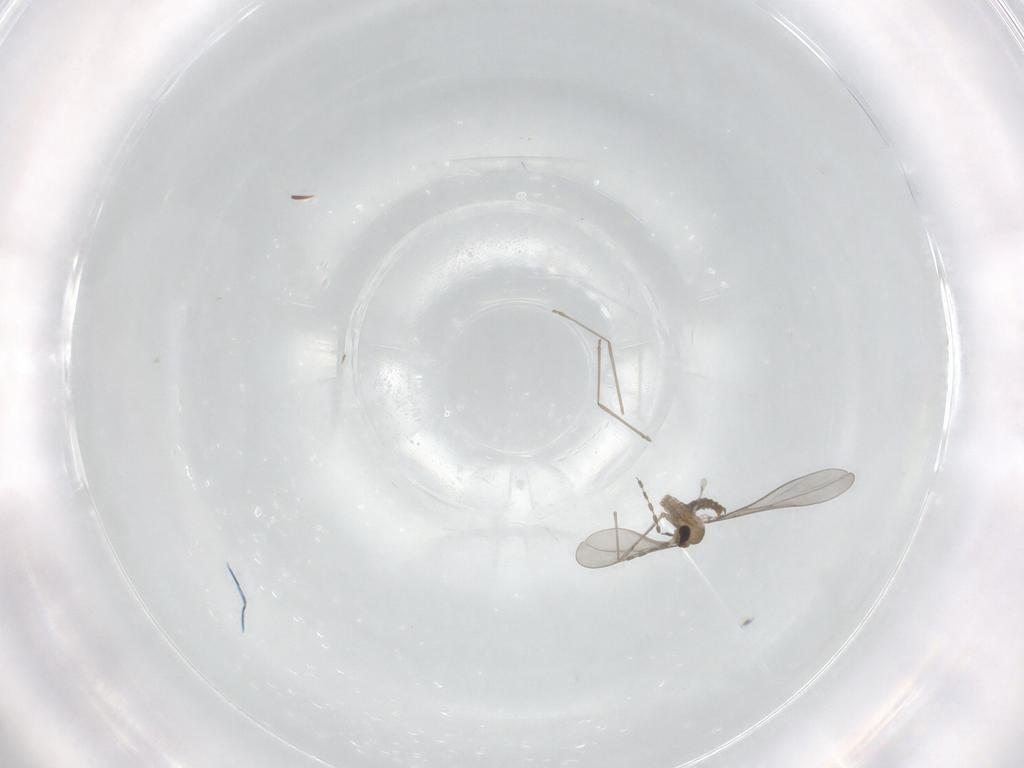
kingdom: Animalia
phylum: Arthropoda
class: Insecta
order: Diptera
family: Cecidomyiidae
